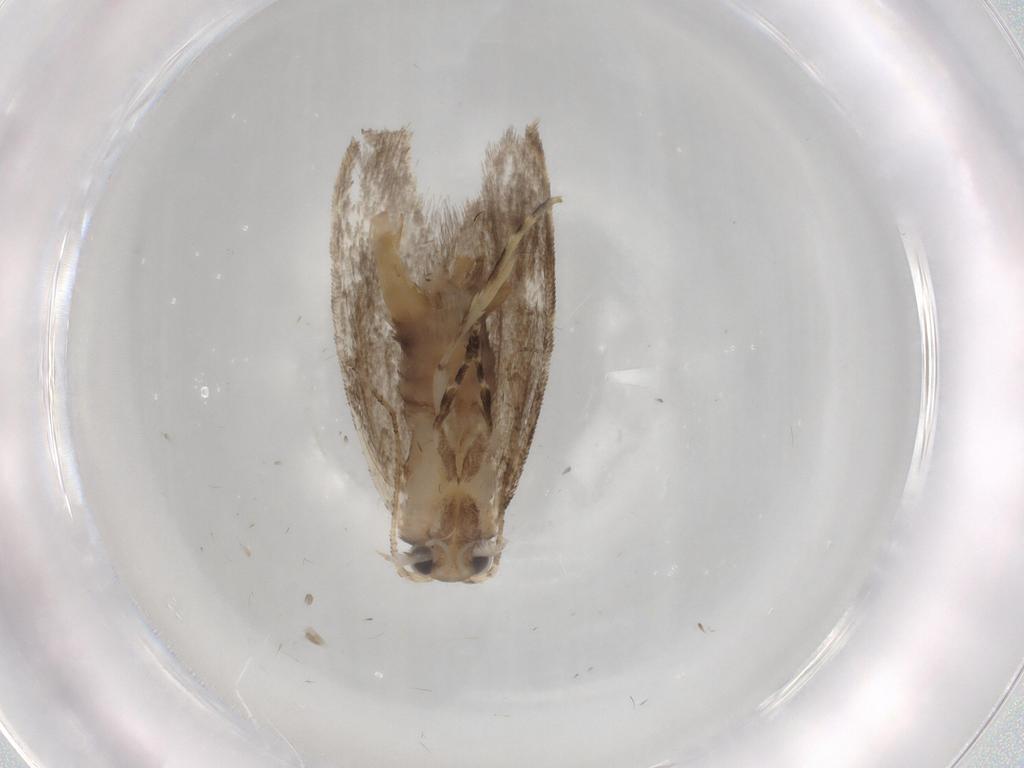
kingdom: Animalia
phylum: Arthropoda
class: Insecta
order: Lepidoptera
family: Tineidae
